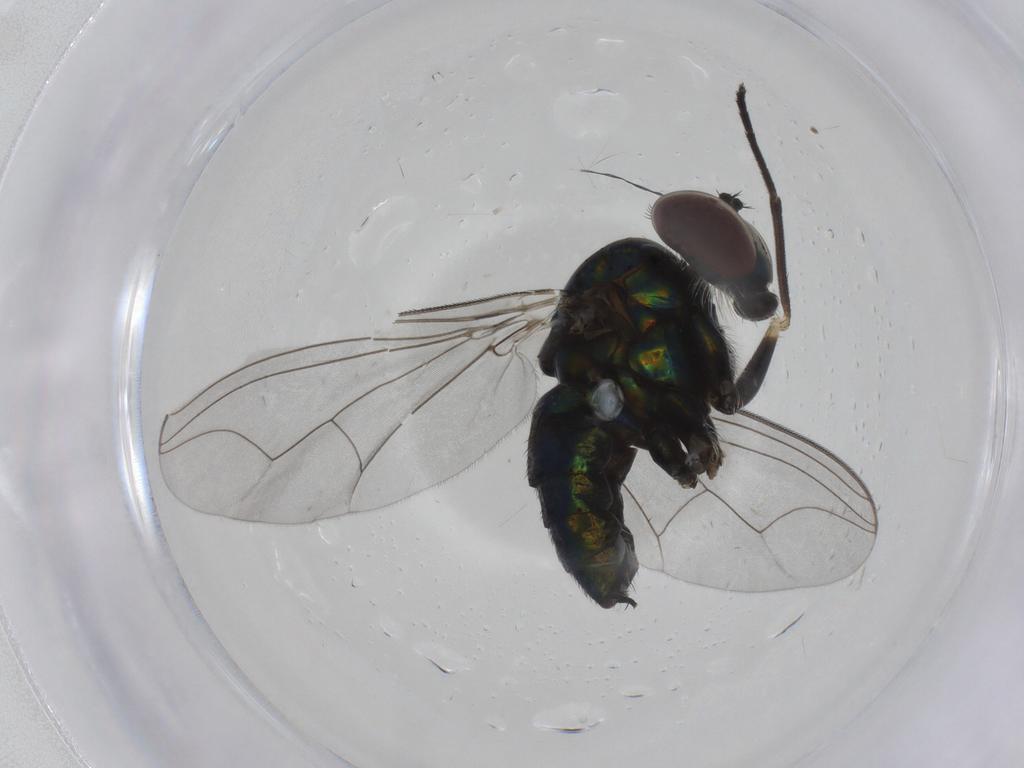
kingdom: Animalia
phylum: Arthropoda
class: Insecta
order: Diptera
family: Dolichopodidae
